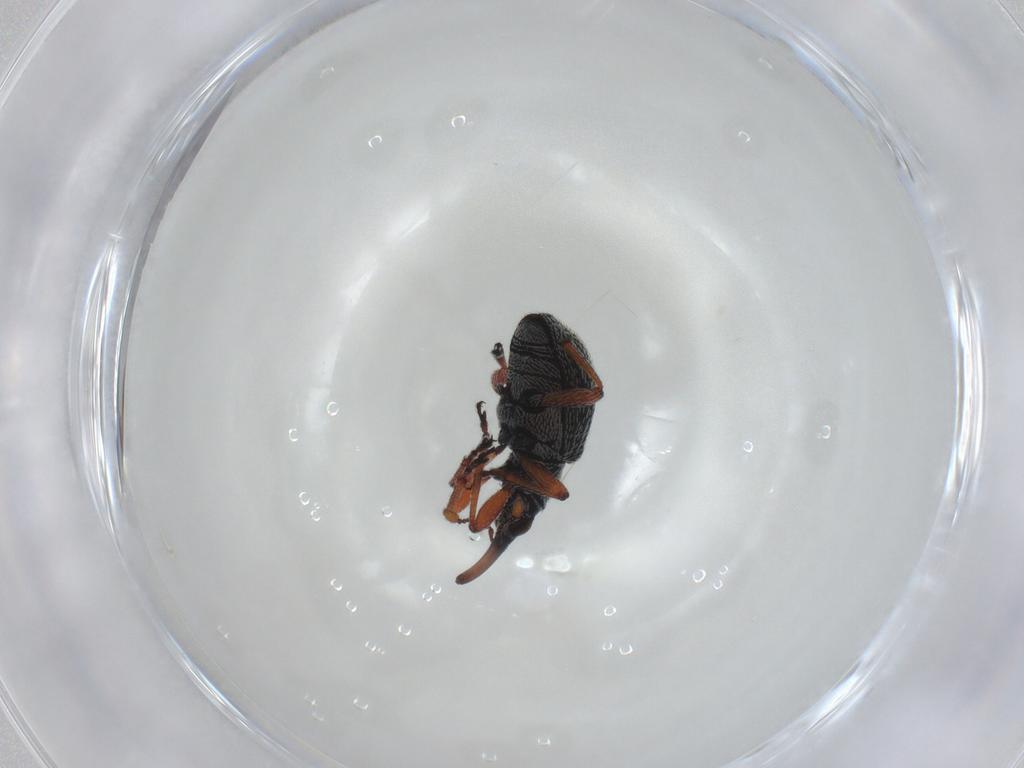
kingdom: Animalia
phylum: Arthropoda
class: Insecta
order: Coleoptera
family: Brentidae
